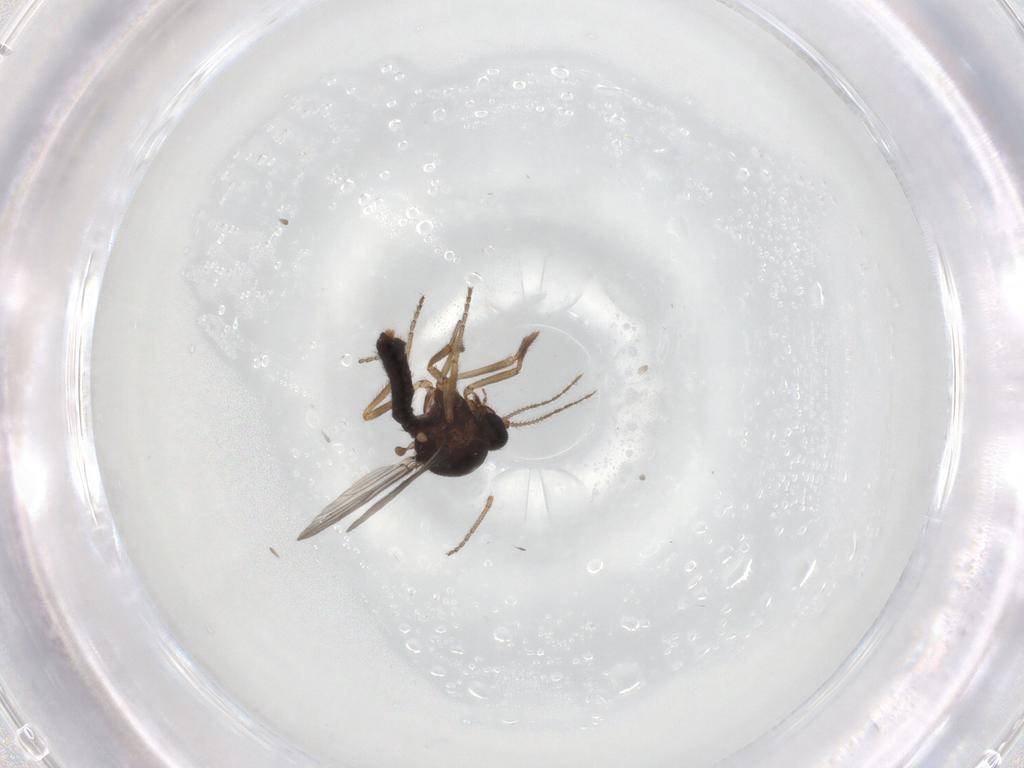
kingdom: Animalia
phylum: Arthropoda
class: Insecta
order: Diptera
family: Ceratopogonidae
